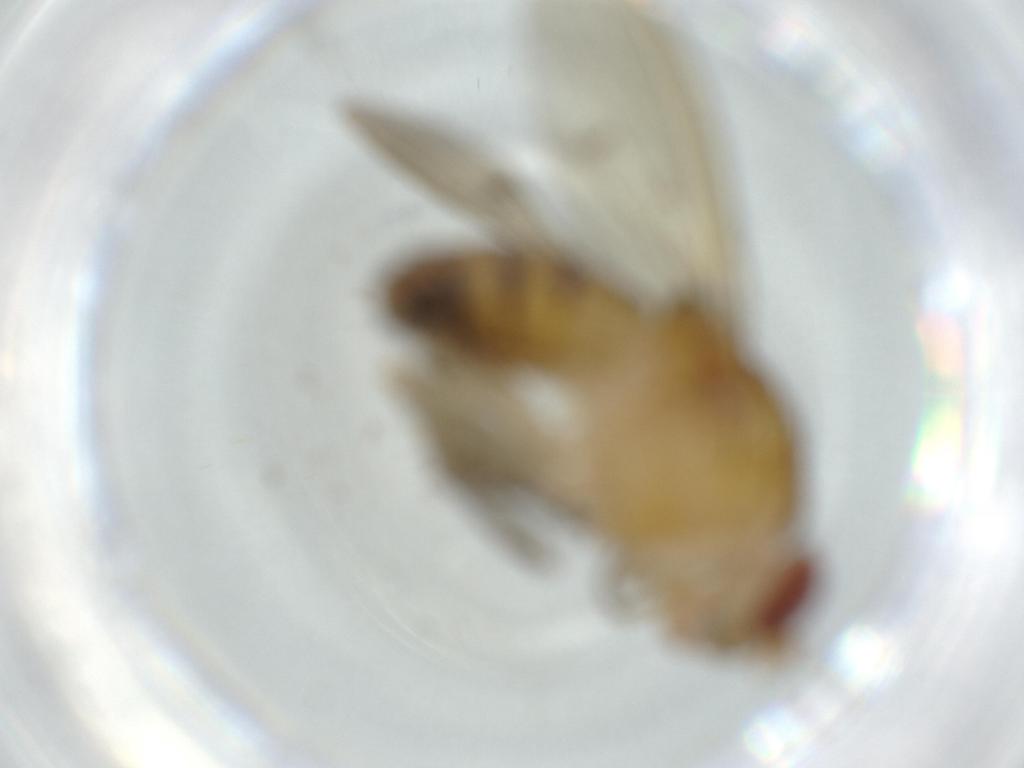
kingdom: Animalia
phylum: Arthropoda
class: Insecta
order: Diptera
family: Lauxaniidae
